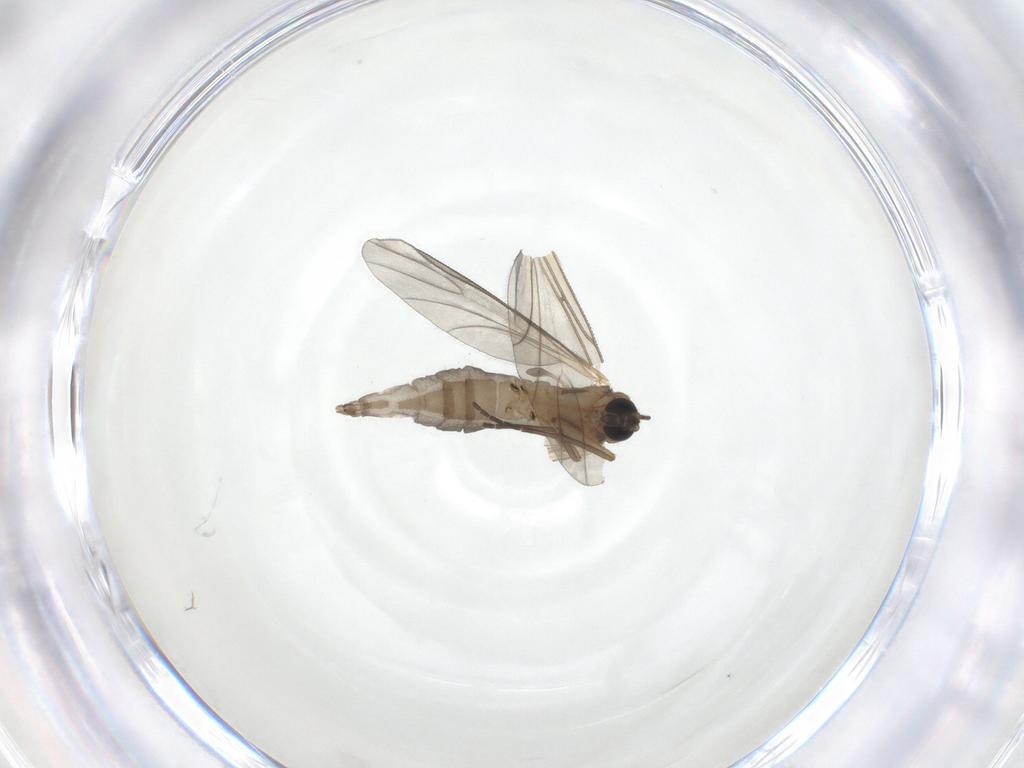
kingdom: Animalia
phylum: Arthropoda
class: Insecta
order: Diptera
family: Sciaridae
